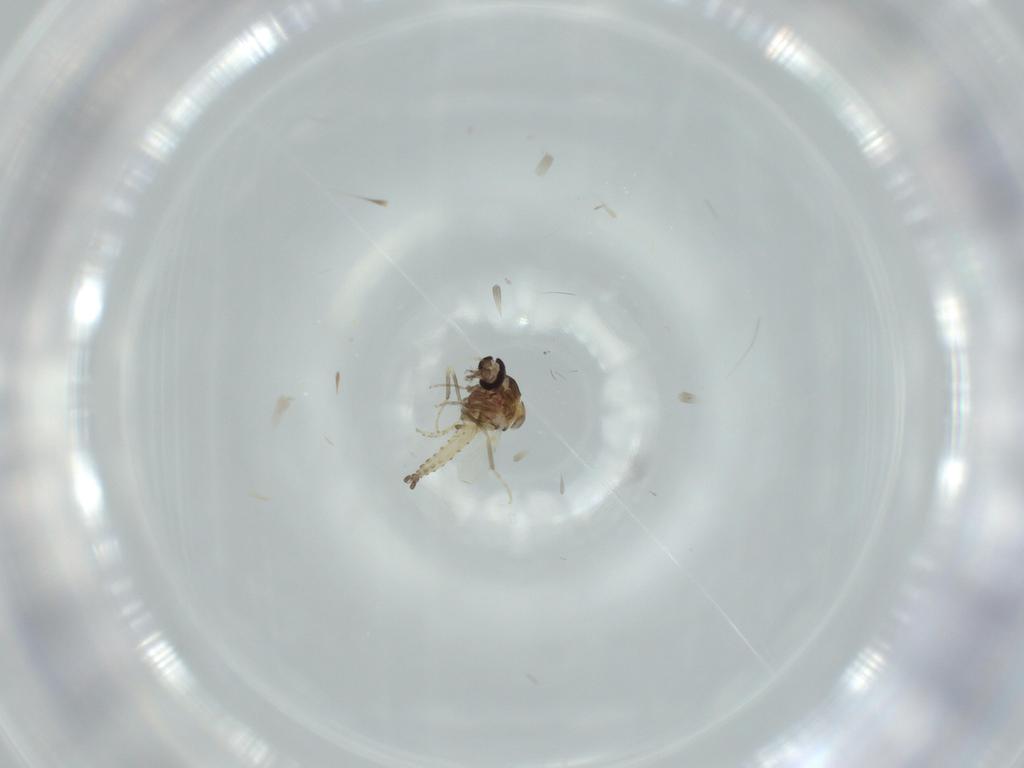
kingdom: Animalia
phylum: Arthropoda
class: Insecta
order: Diptera
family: Ceratopogonidae
